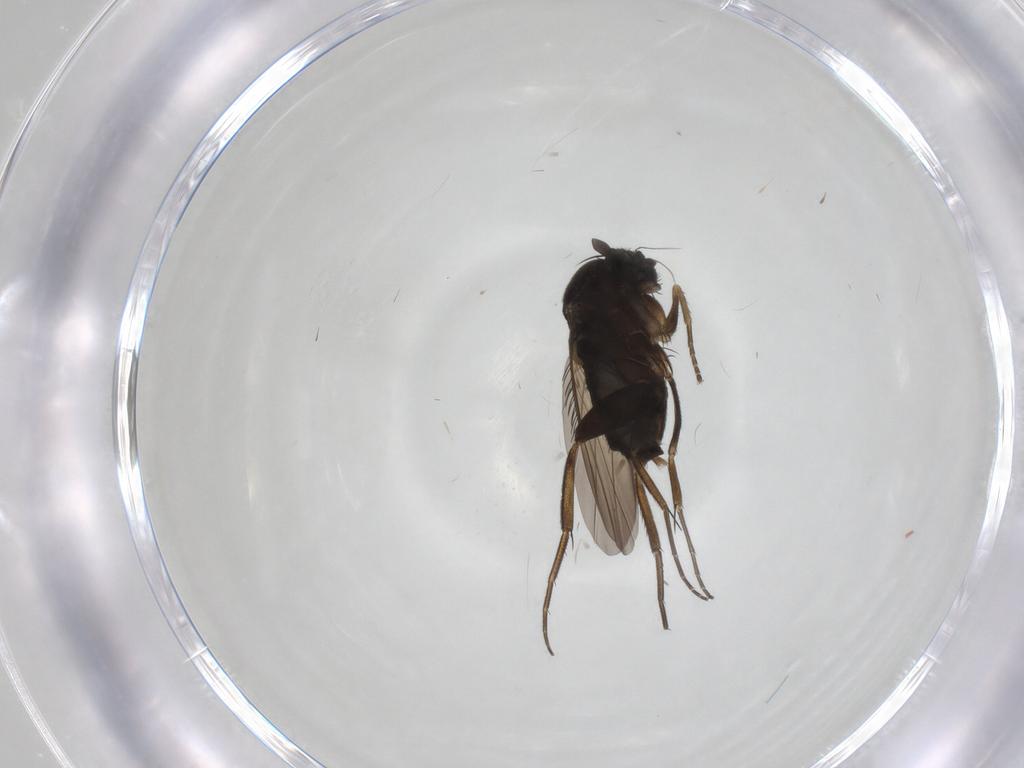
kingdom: Animalia
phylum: Arthropoda
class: Insecta
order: Diptera
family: Phoridae
